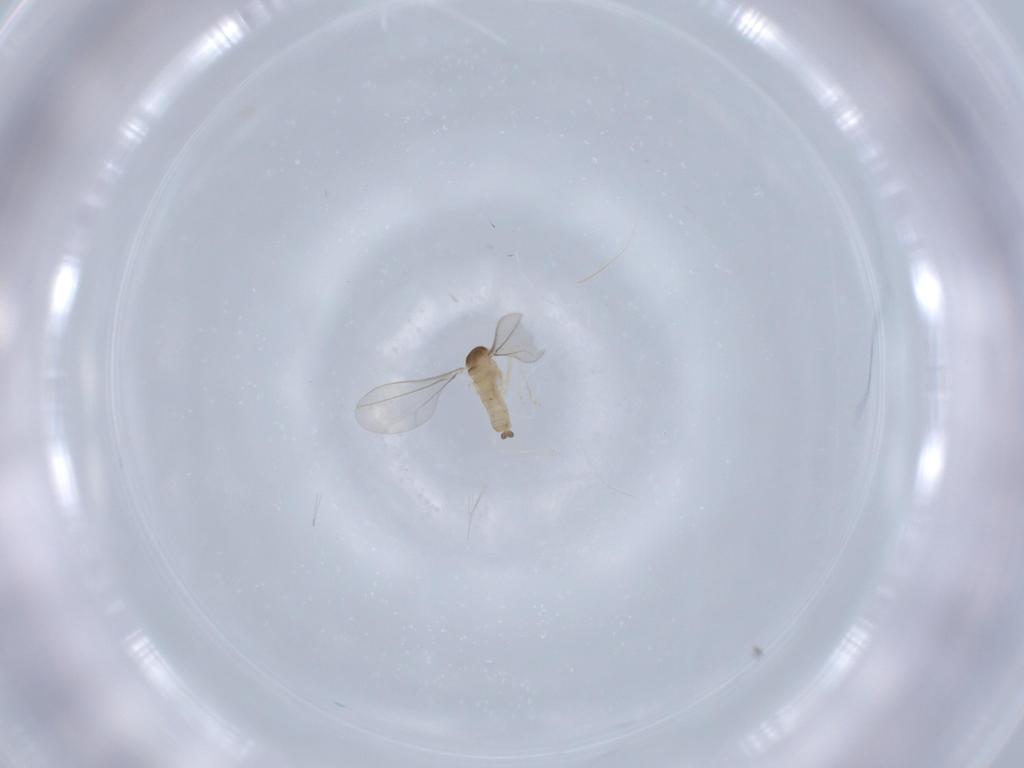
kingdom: Animalia
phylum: Arthropoda
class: Insecta
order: Diptera
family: Cecidomyiidae
